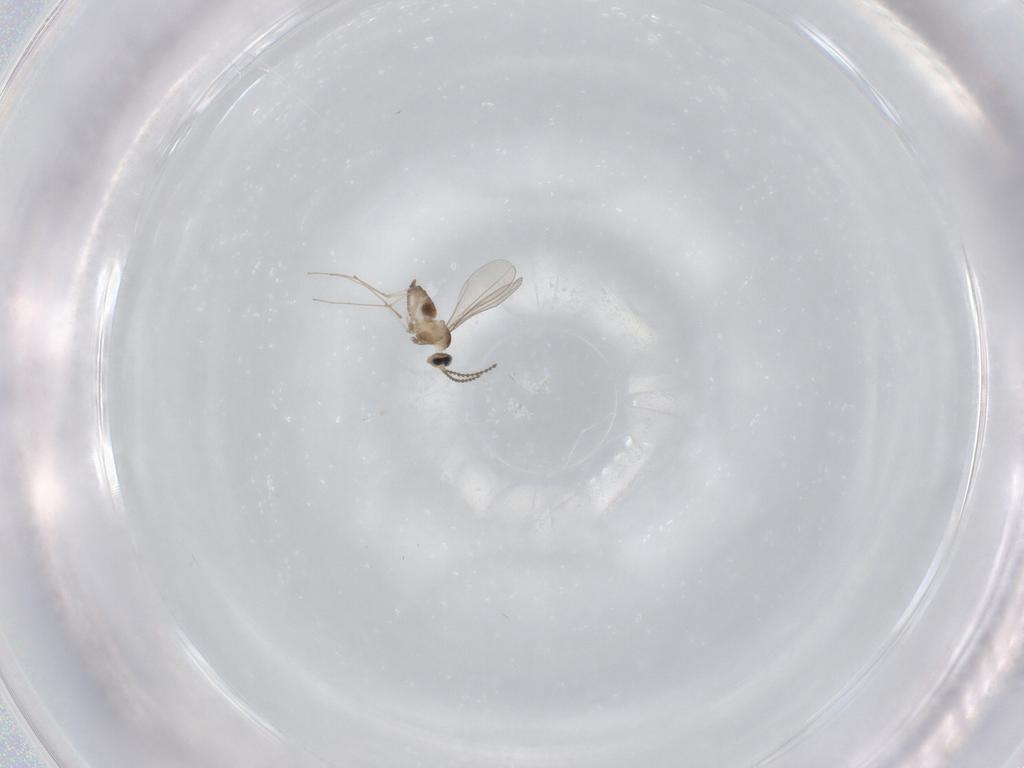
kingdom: Animalia
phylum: Arthropoda
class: Insecta
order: Diptera
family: Cecidomyiidae
